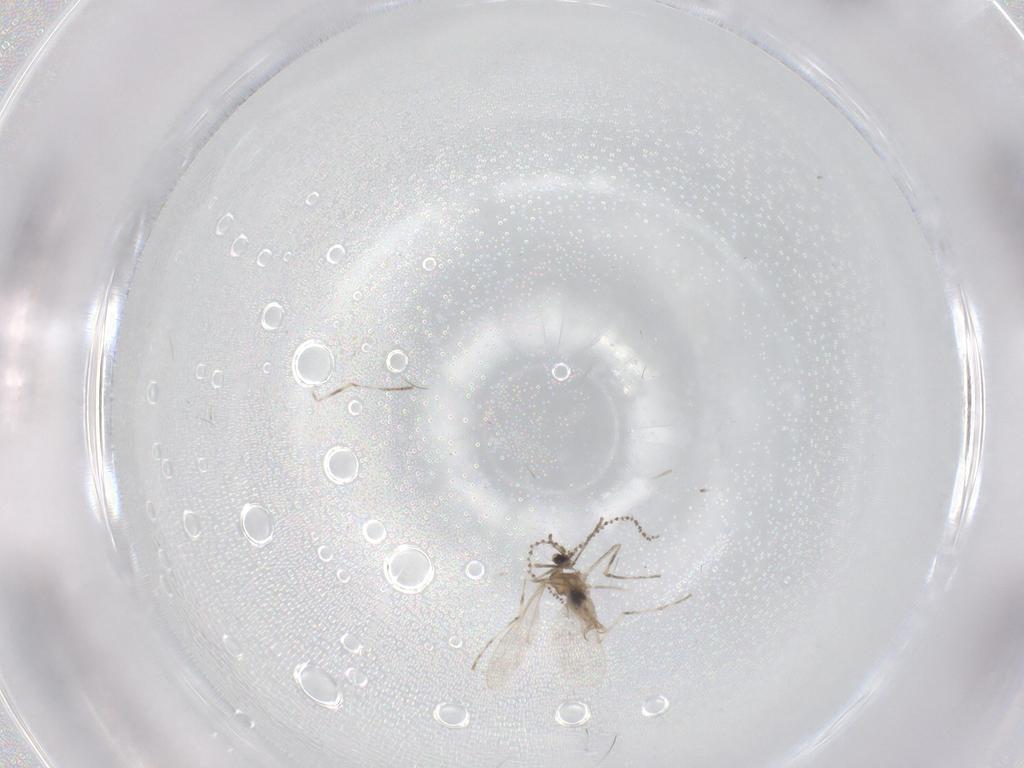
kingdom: Animalia
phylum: Arthropoda
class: Insecta
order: Diptera
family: Cecidomyiidae
